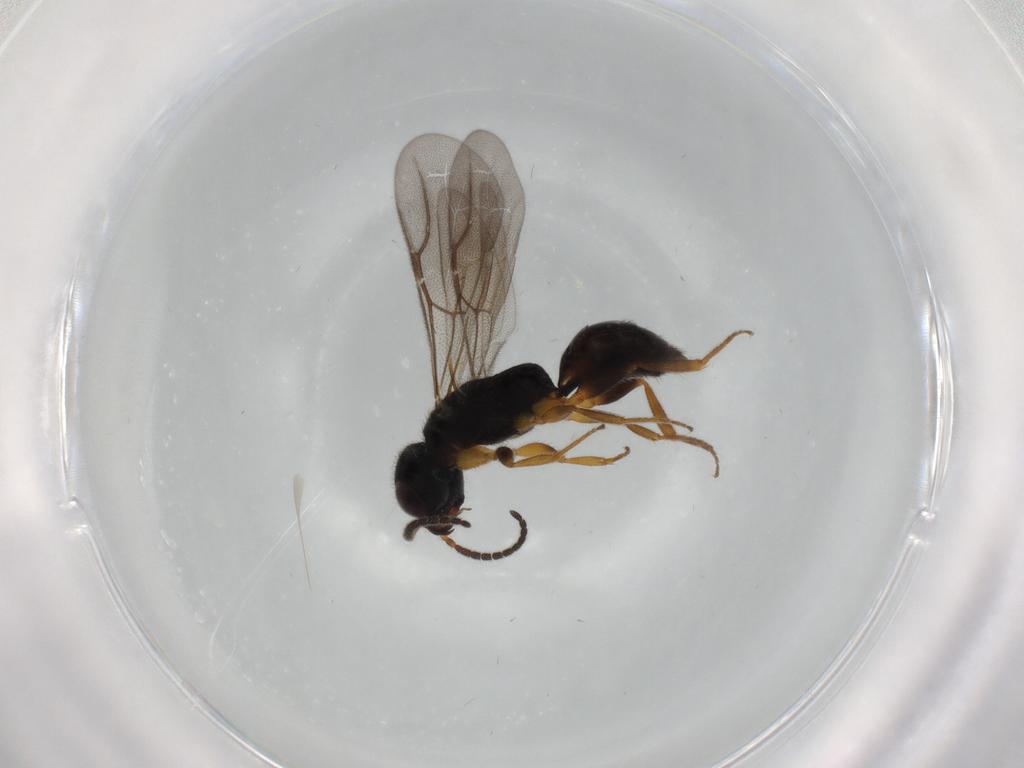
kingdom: Animalia
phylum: Arthropoda
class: Insecta
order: Hymenoptera
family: Bethylidae
